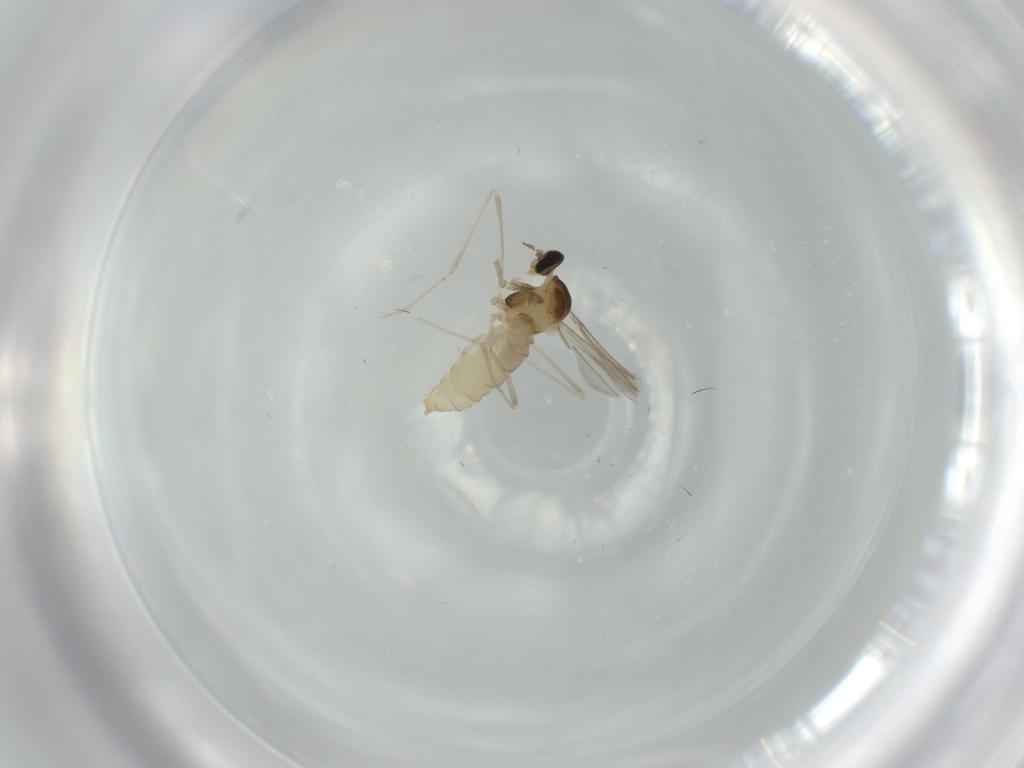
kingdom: Animalia
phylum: Arthropoda
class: Insecta
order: Diptera
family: Cecidomyiidae
